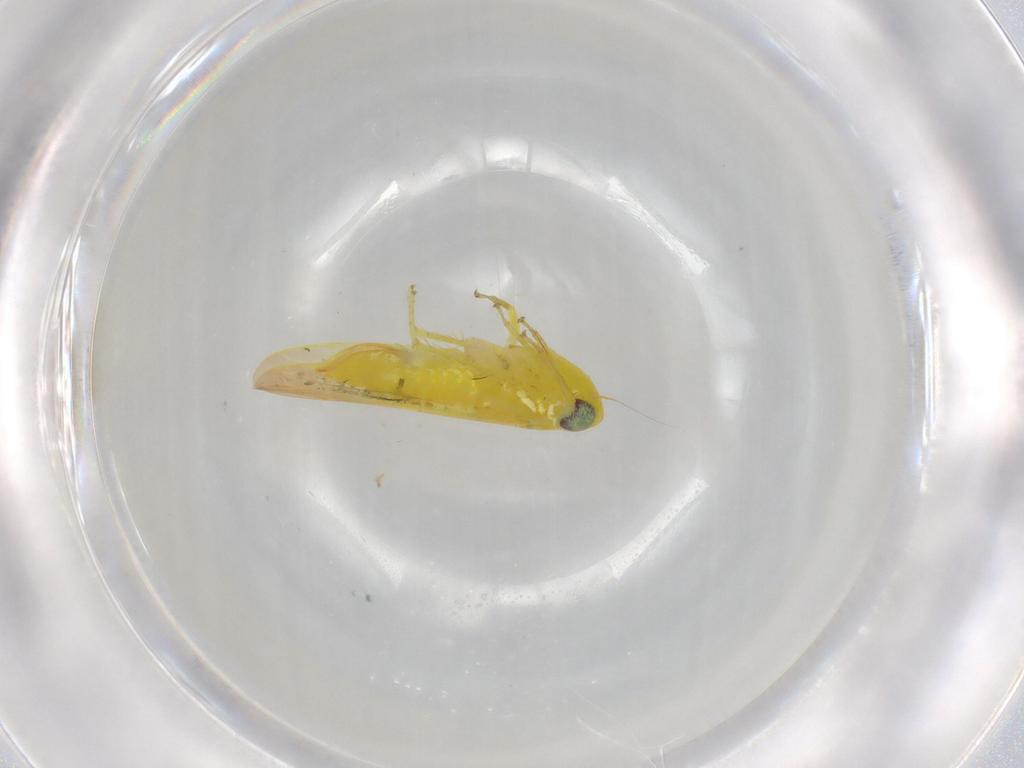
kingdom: Animalia
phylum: Arthropoda
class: Insecta
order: Hemiptera
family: Cicadellidae
